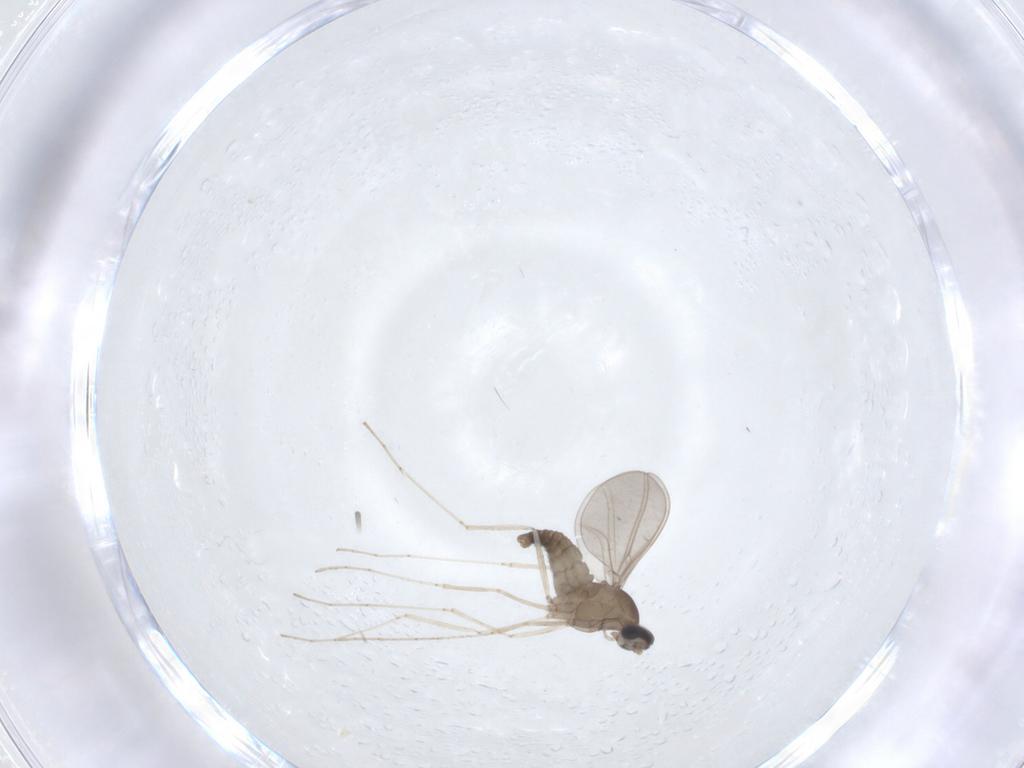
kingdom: Animalia
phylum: Arthropoda
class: Insecta
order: Diptera
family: Cecidomyiidae
